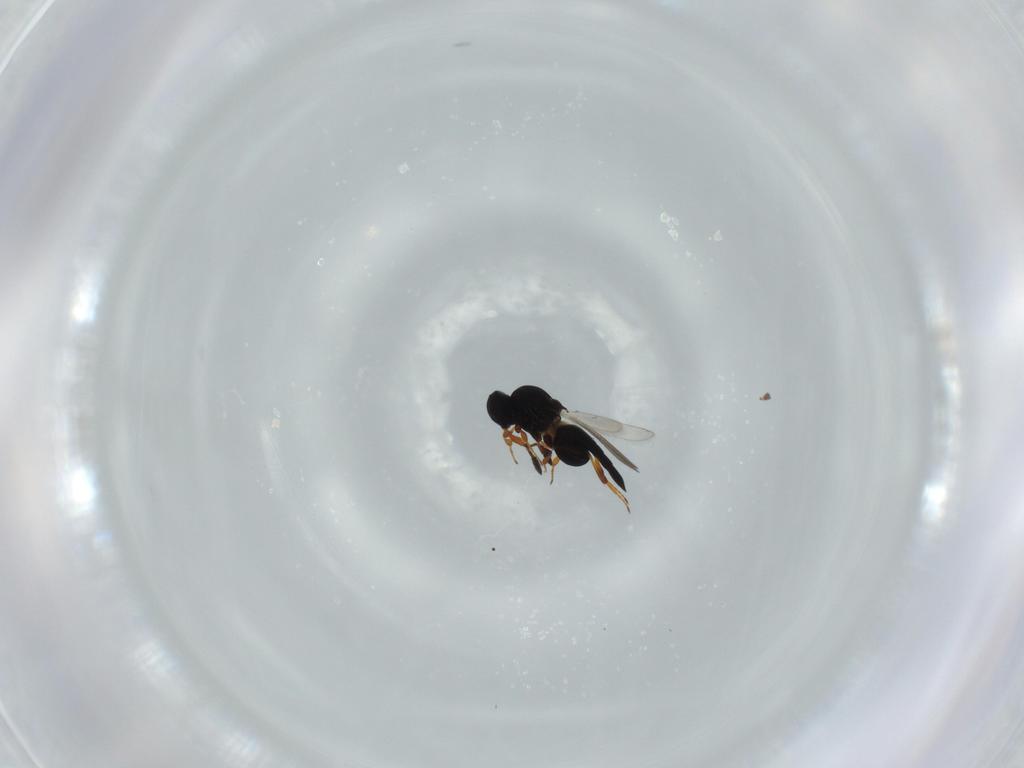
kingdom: Animalia
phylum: Arthropoda
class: Insecta
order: Hymenoptera
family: Platygastridae
